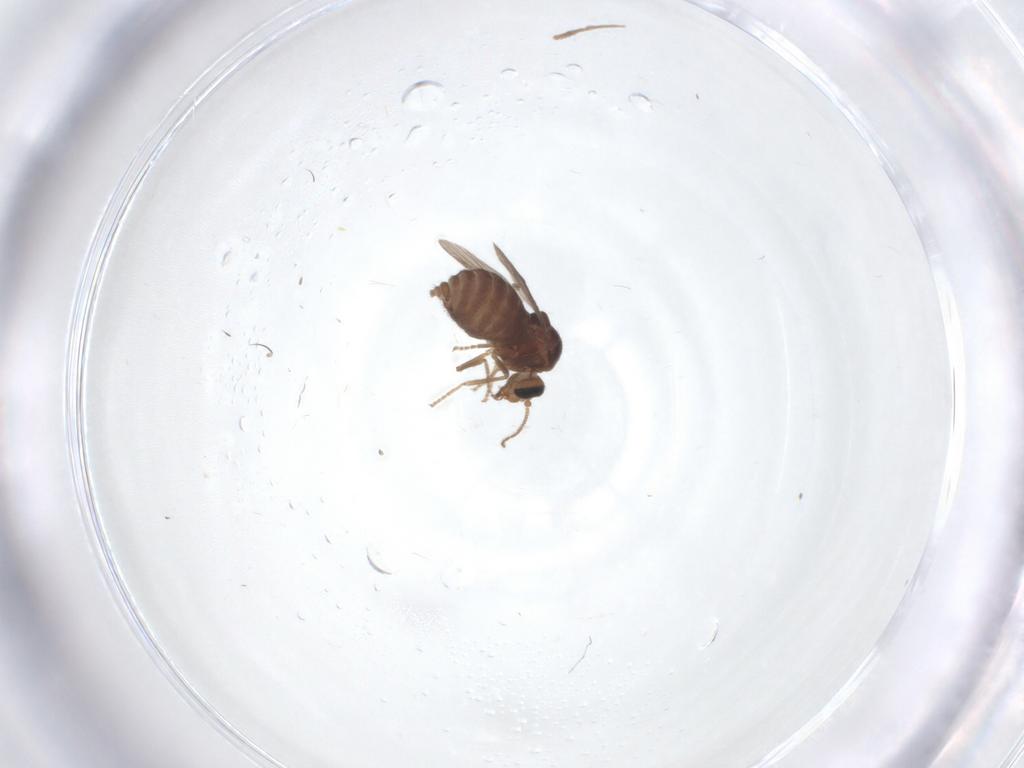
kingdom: Animalia
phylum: Arthropoda
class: Insecta
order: Diptera
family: Ceratopogonidae
